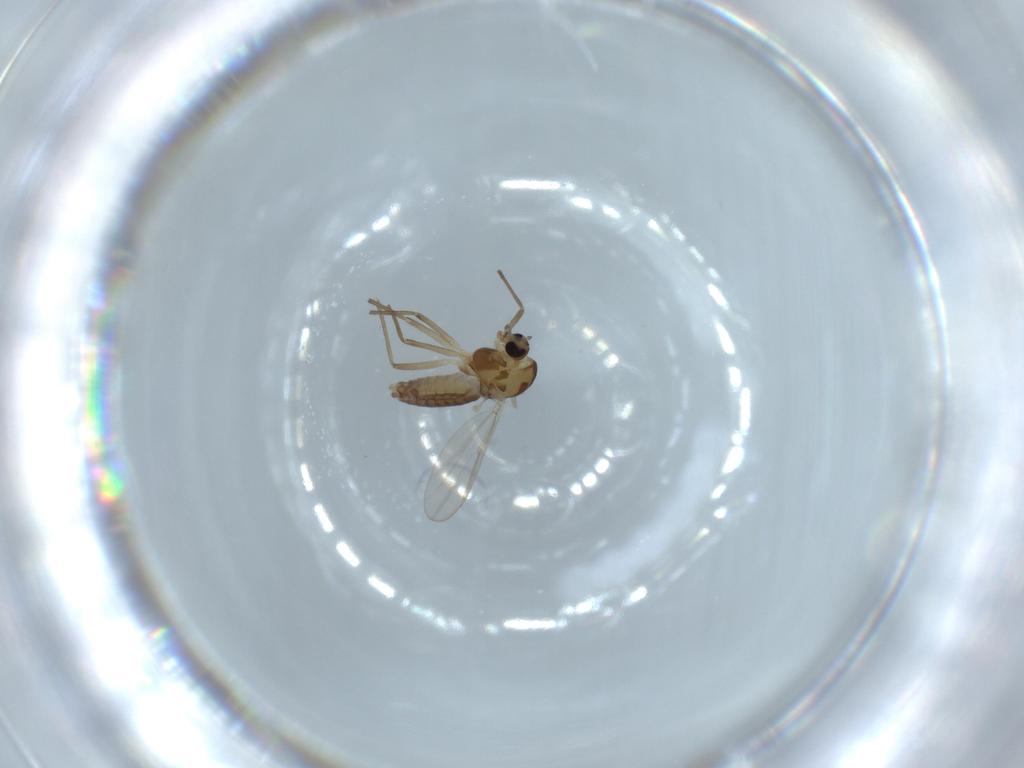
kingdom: Animalia
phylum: Arthropoda
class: Insecta
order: Diptera
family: Chironomidae
